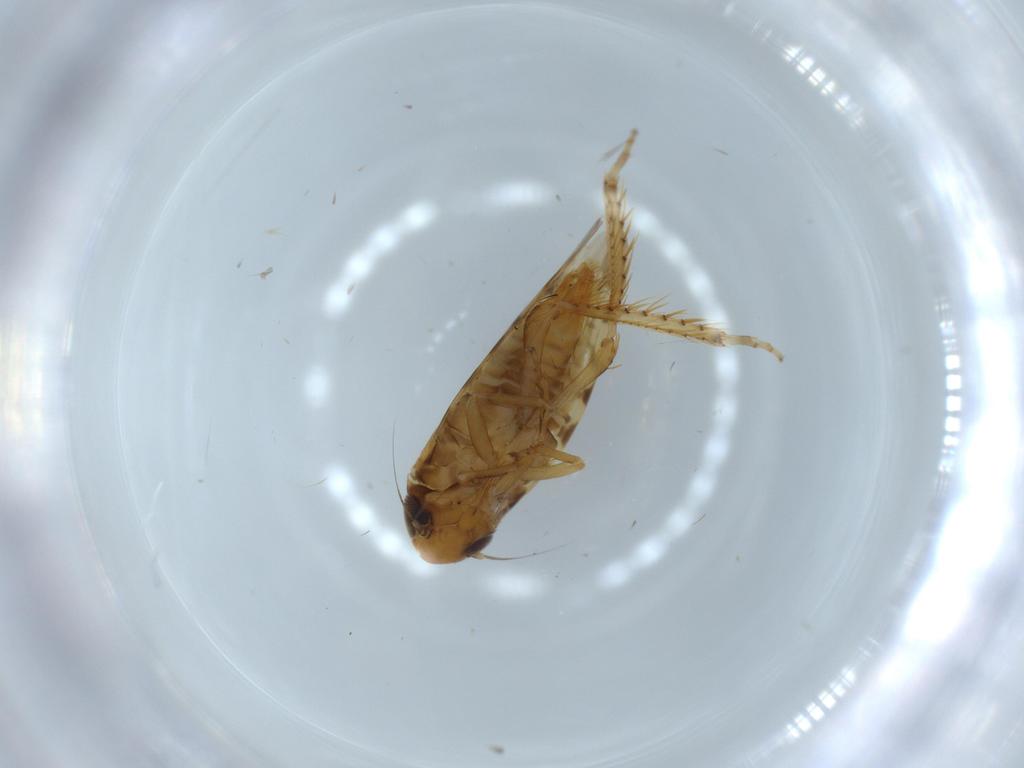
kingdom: Animalia
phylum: Arthropoda
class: Insecta
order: Hemiptera
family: Cicadellidae
